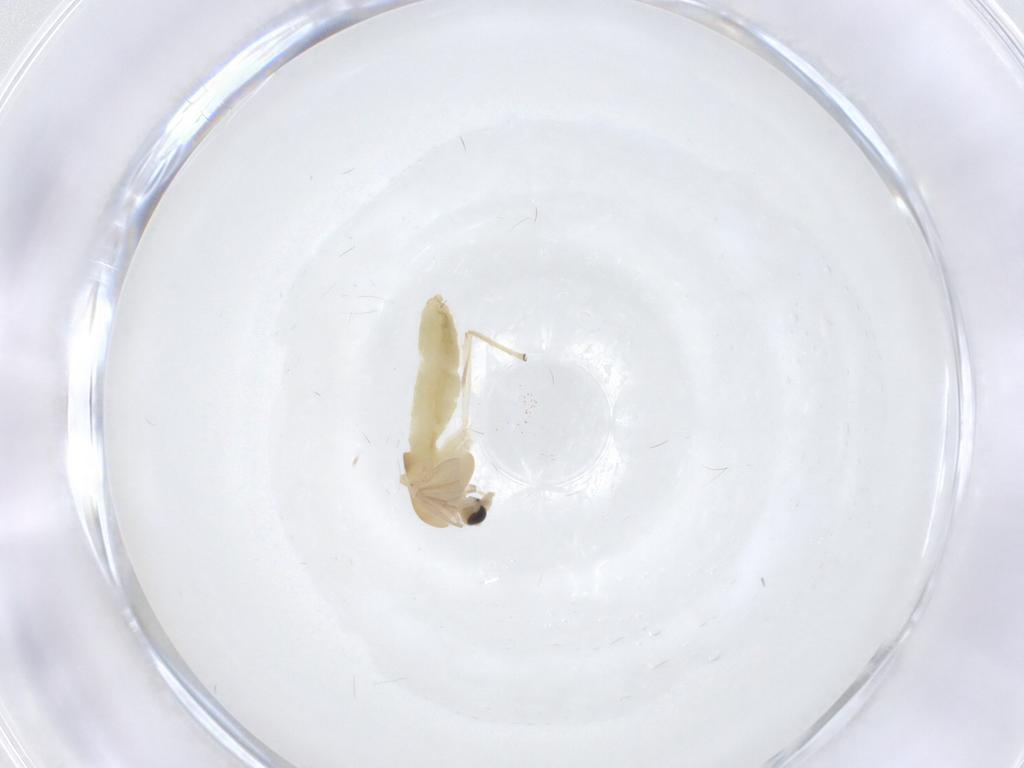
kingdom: Animalia
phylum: Arthropoda
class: Insecta
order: Diptera
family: Chironomidae
